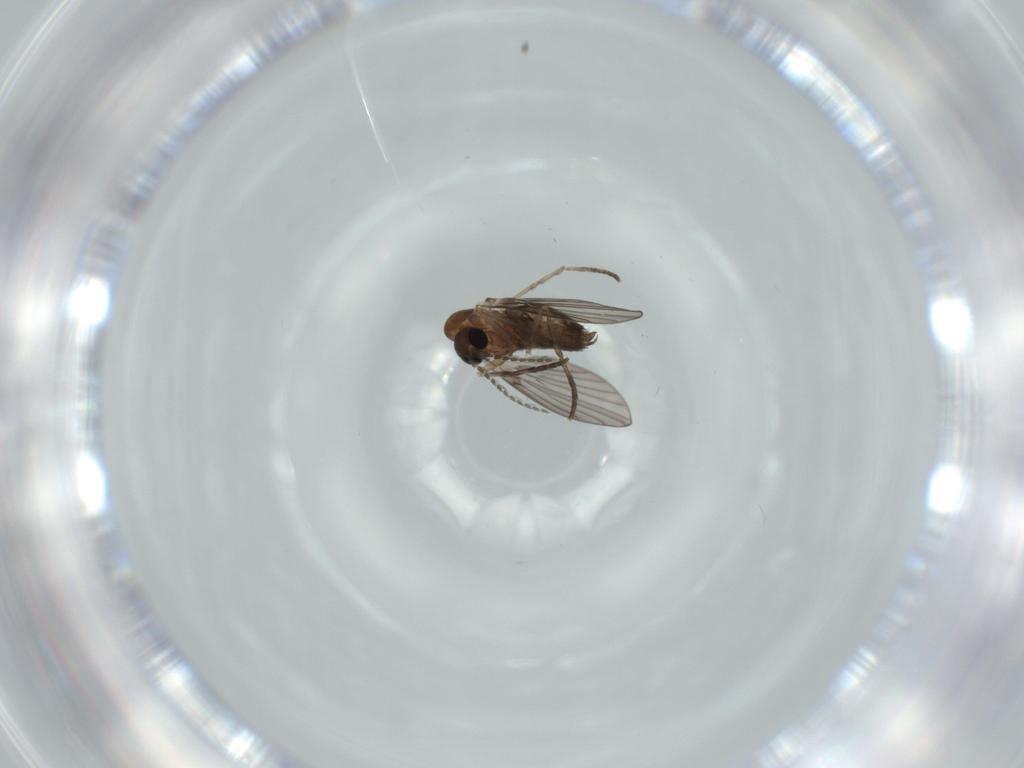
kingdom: Animalia
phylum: Arthropoda
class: Insecta
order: Diptera
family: Psychodidae
